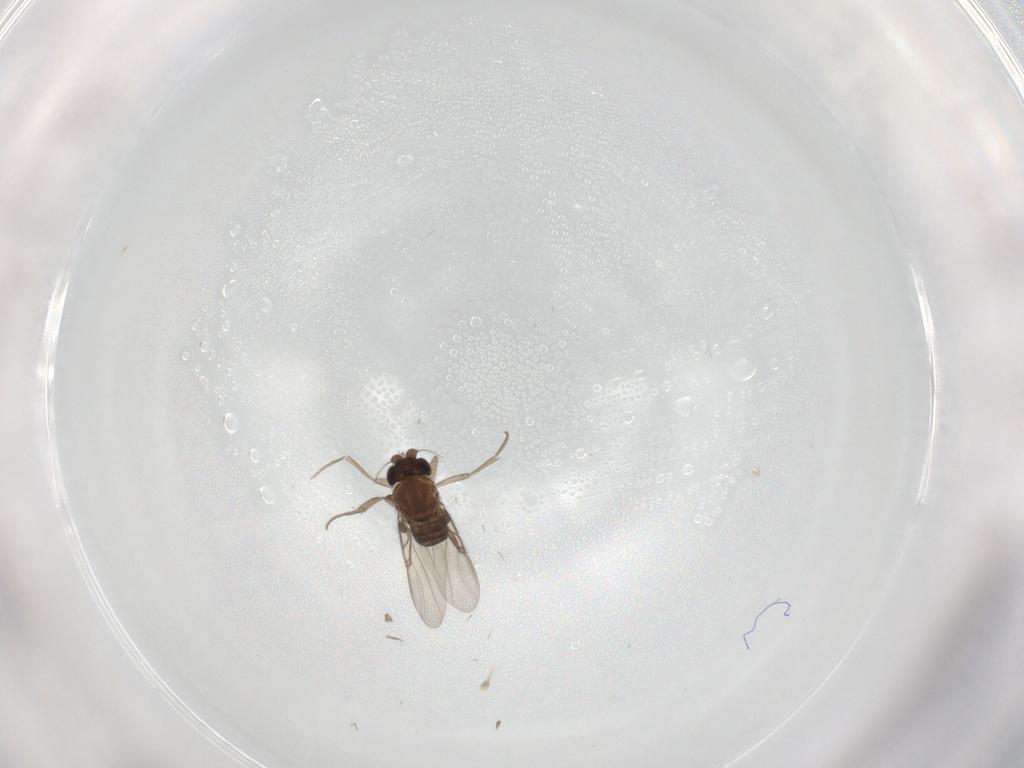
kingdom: Animalia
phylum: Arthropoda
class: Insecta
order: Diptera
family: Phoridae
